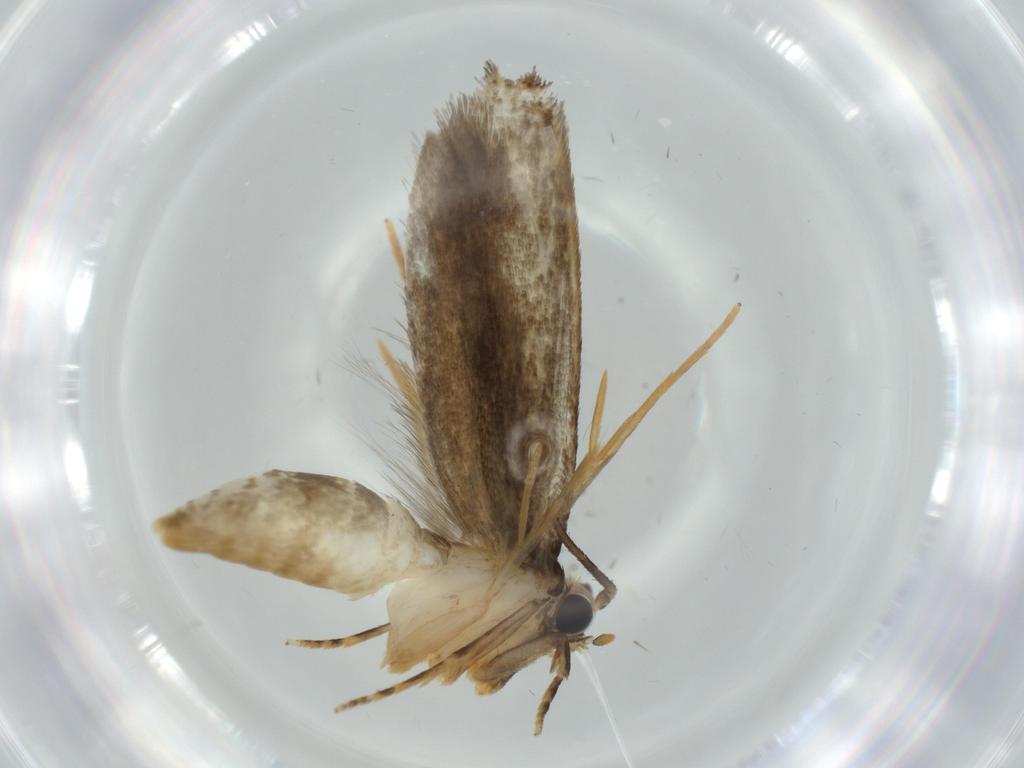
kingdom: Animalia
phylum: Arthropoda
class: Insecta
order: Lepidoptera
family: Tineidae
